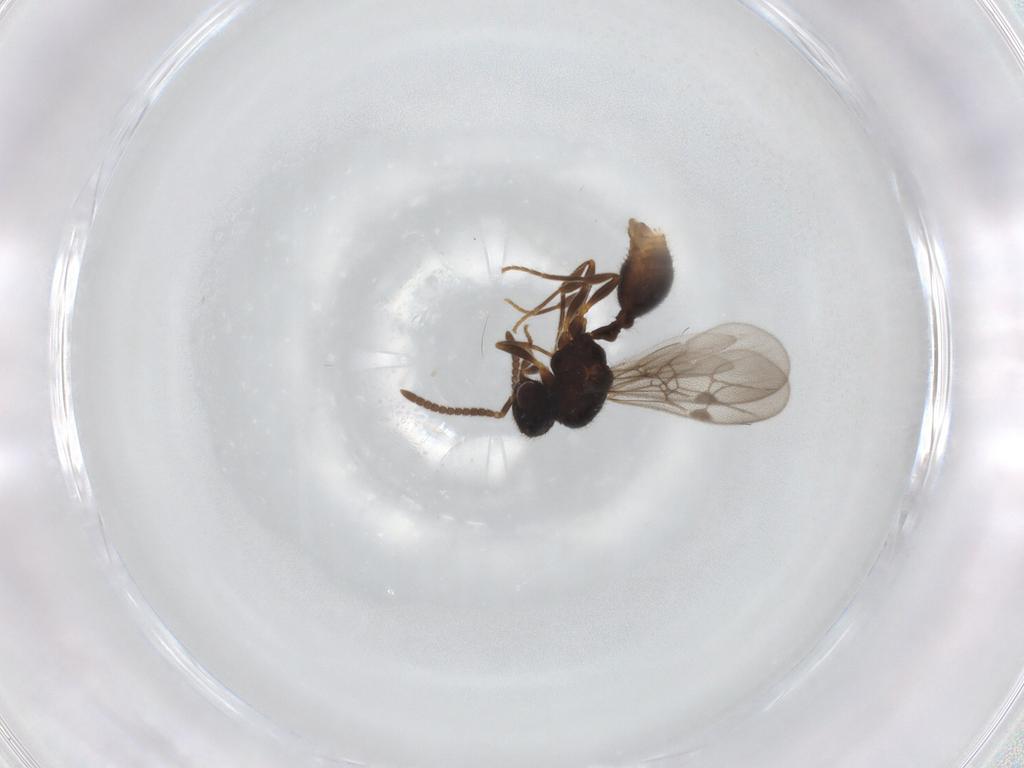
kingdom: Animalia
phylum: Arthropoda
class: Insecta
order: Hymenoptera
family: Formicidae
